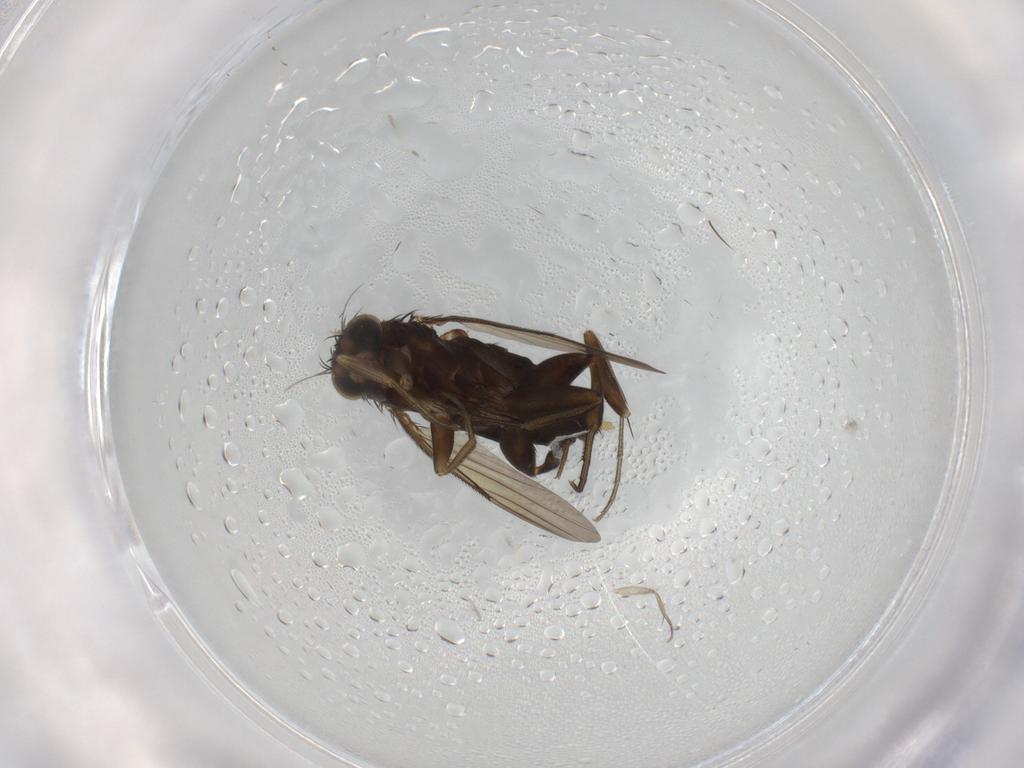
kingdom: Animalia
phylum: Arthropoda
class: Insecta
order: Diptera
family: Phoridae
